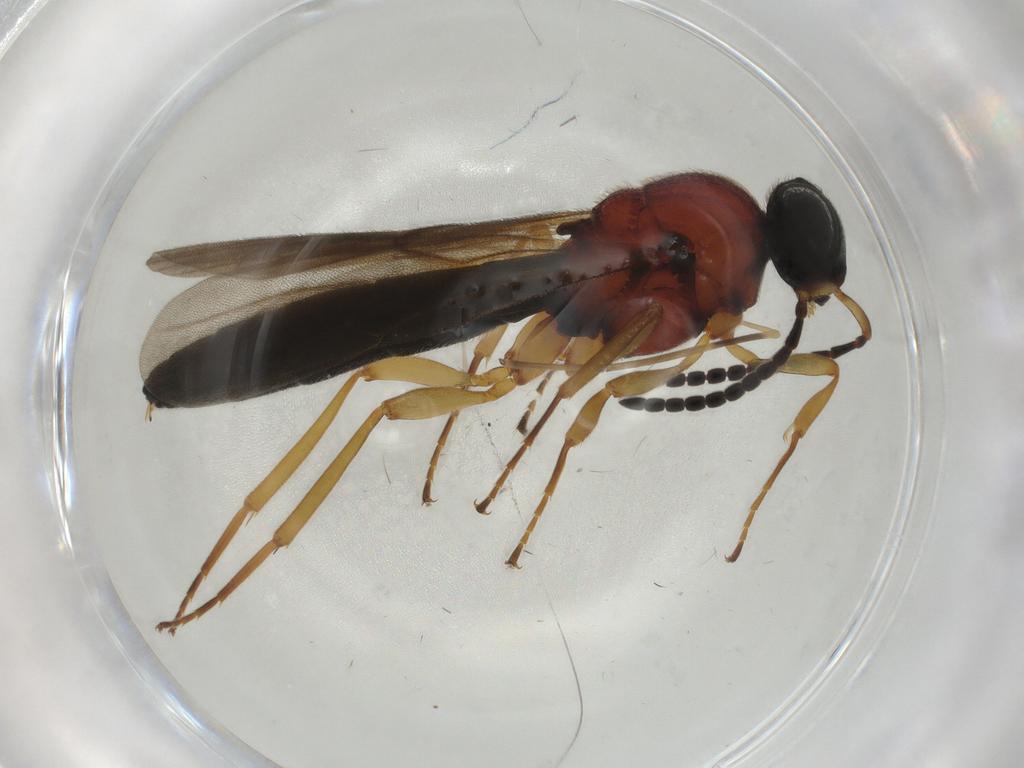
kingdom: Animalia
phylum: Arthropoda
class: Insecta
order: Hymenoptera
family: Scelionidae
